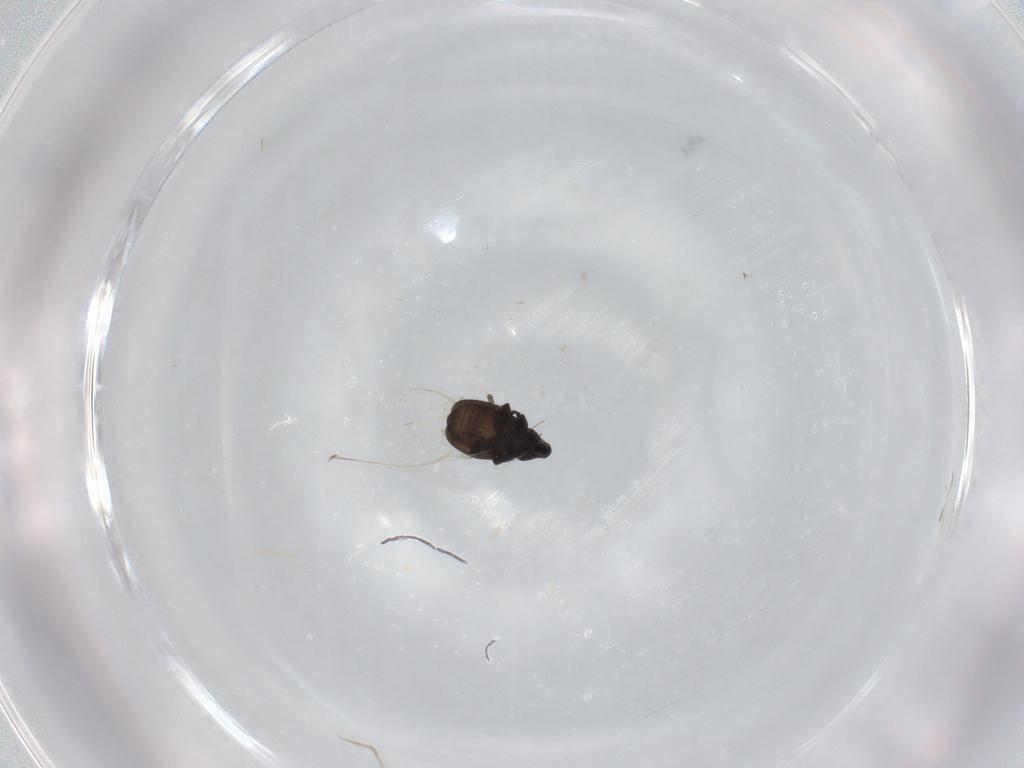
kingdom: Animalia
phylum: Arthropoda
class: Insecta
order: Coleoptera
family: Curculionidae
